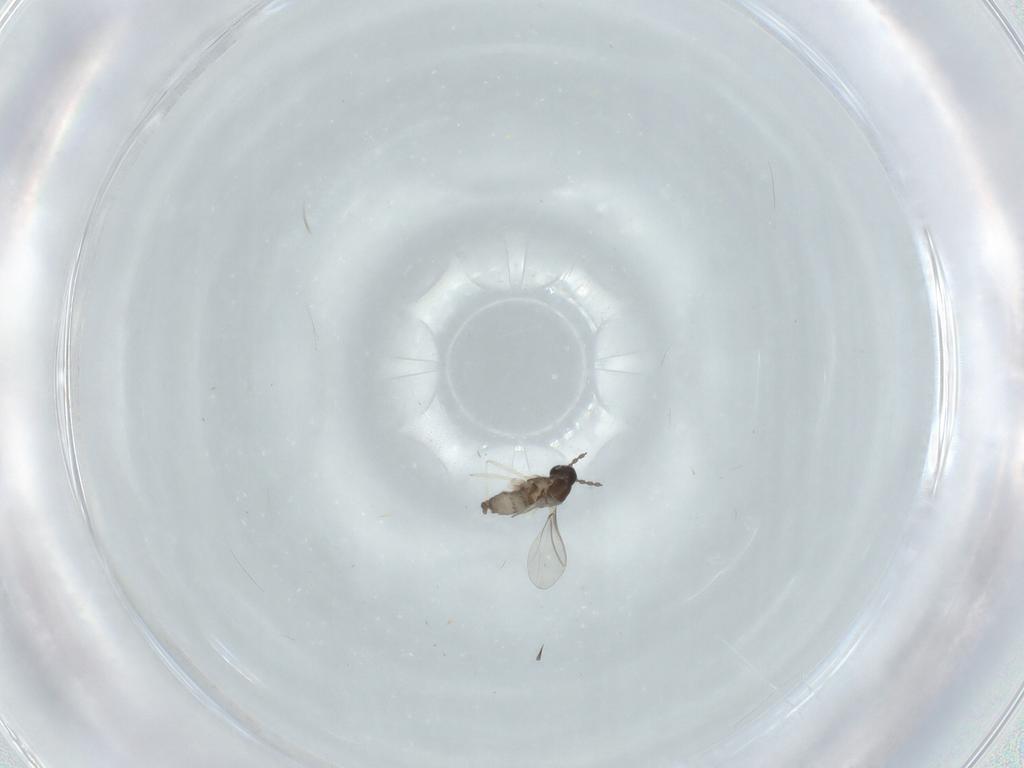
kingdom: Animalia
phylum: Arthropoda
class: Insecta
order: Diptera
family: Cecidomyiidae
